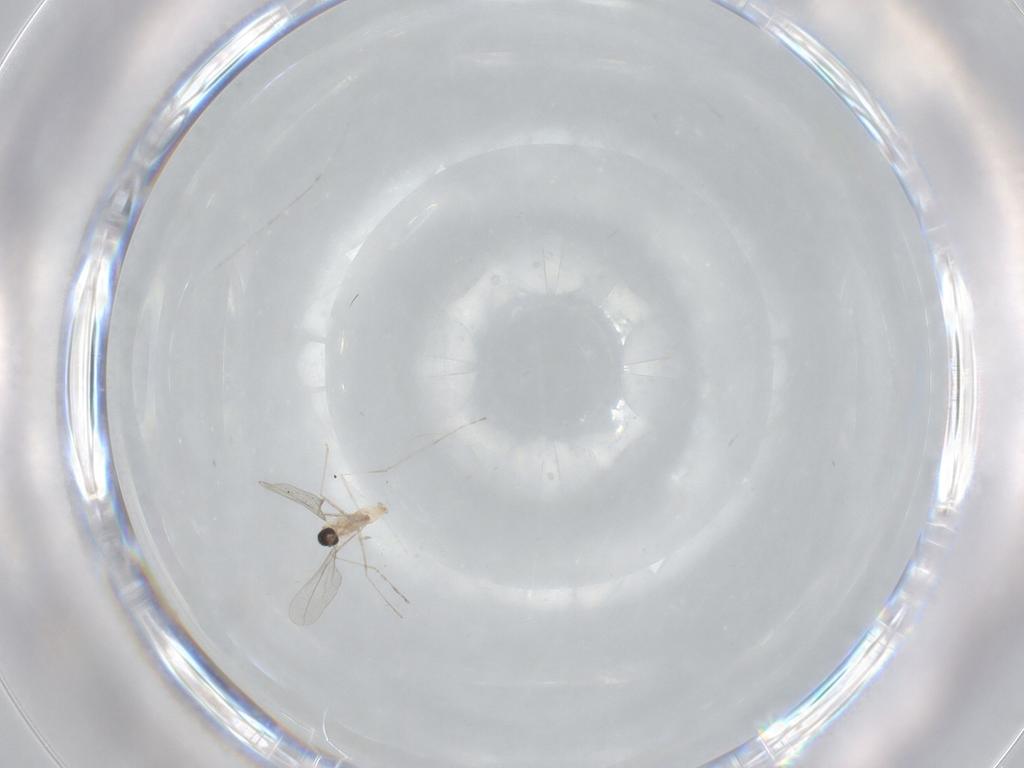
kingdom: Animalia
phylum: Arthropoda
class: Insecta
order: Diptera
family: Cecidomyiidae
